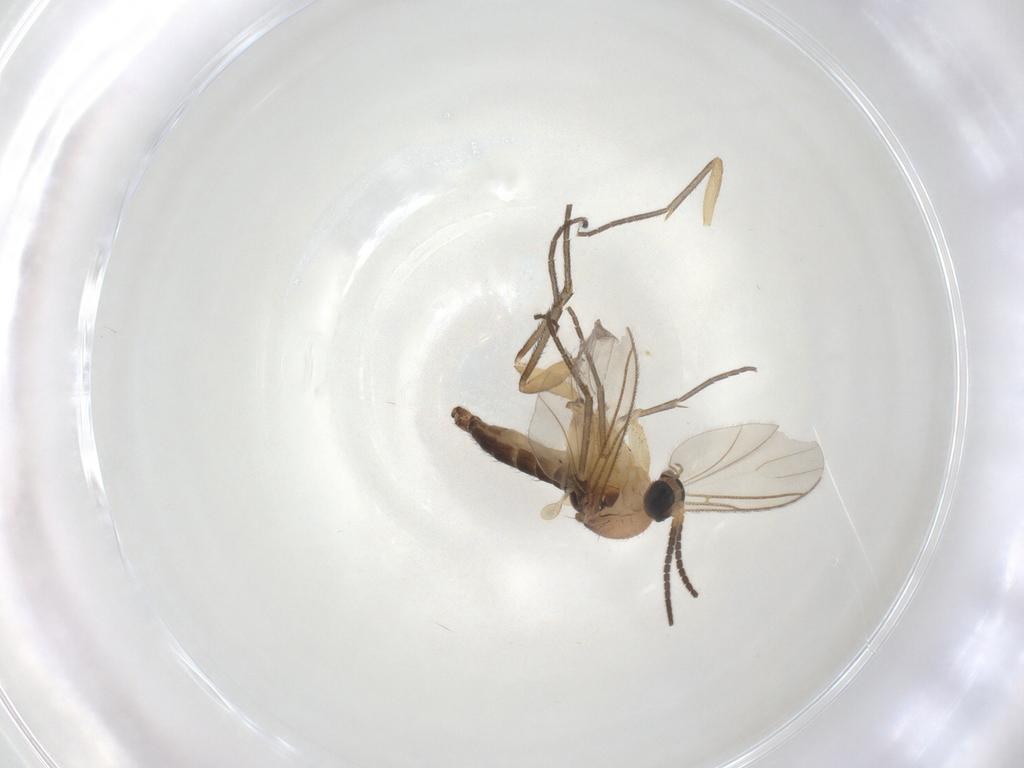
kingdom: Animalia
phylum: Arthropoda
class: Insecta
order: Diptera
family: Sciaridae
